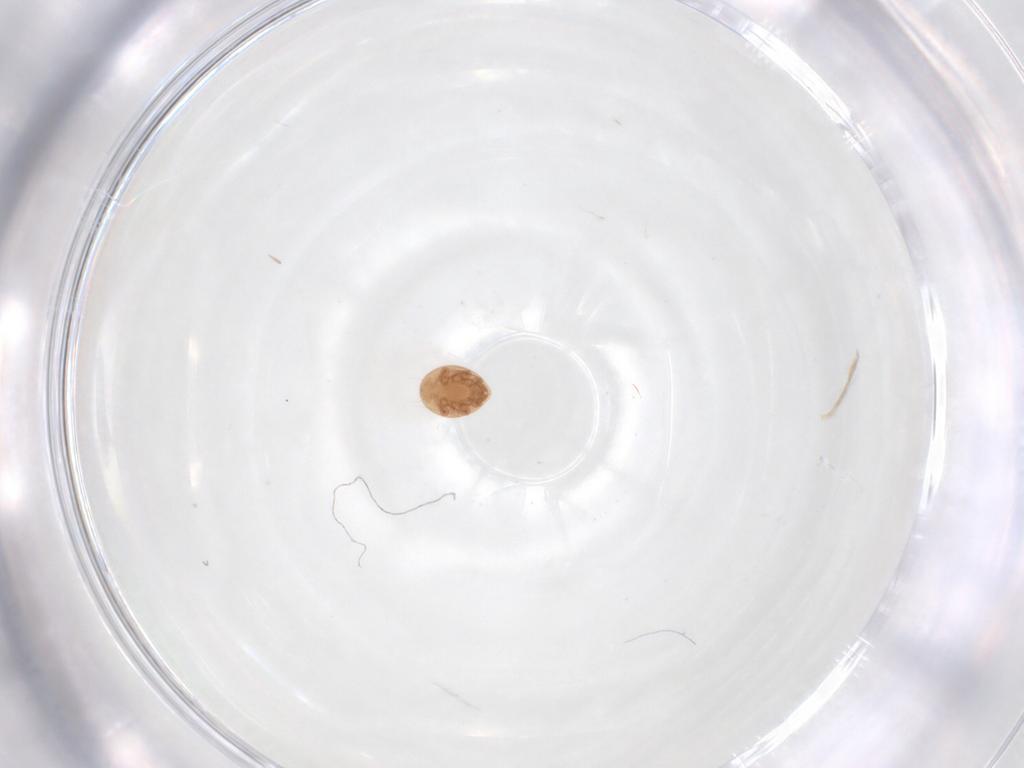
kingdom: Animalia
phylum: Arthropoda
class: Arachnida
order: Mesostigmata
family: Trematuridae
